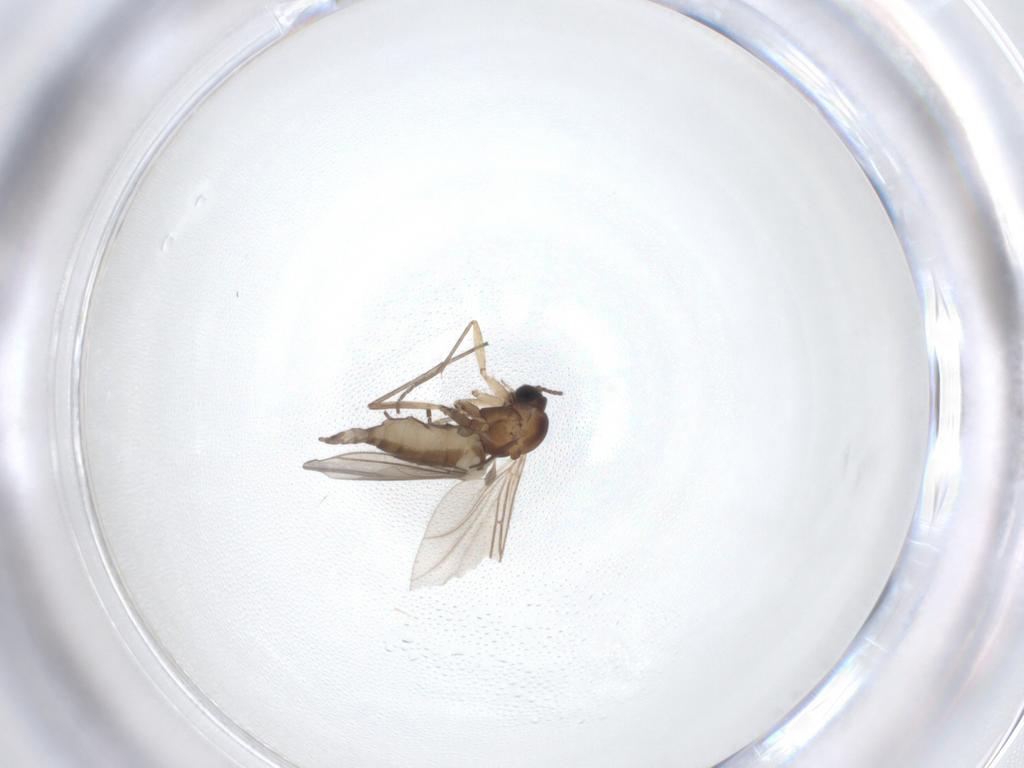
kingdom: Animalia
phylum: Arthropoda
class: Insecta
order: Diptera
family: Sciaridae
